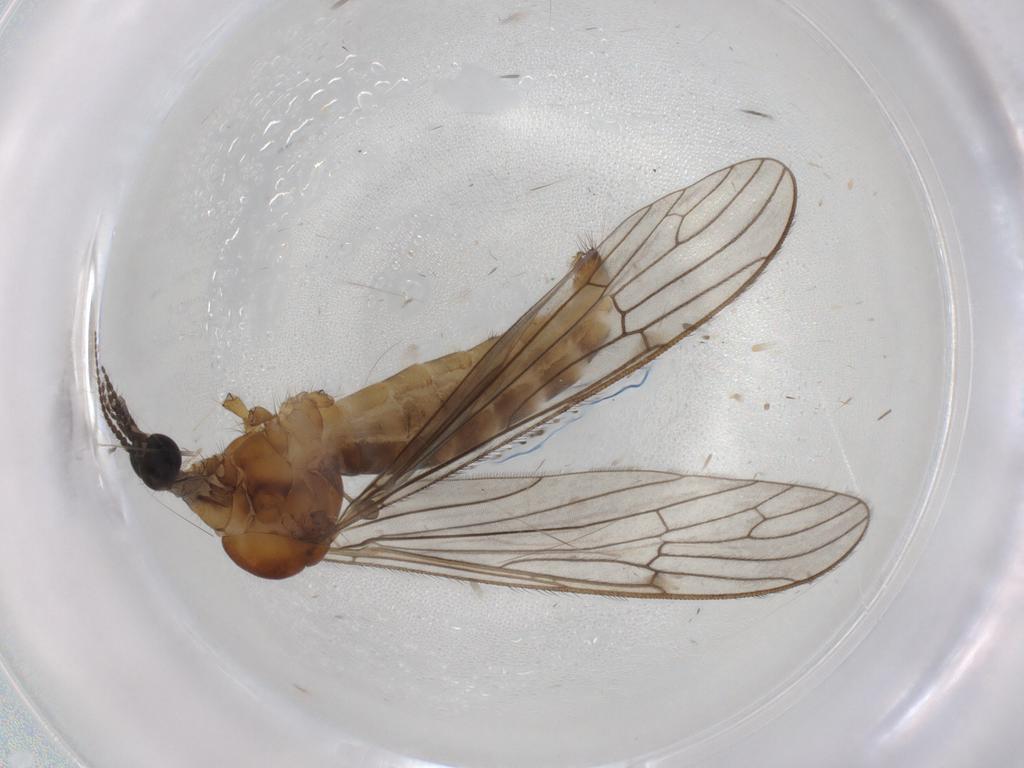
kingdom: Animalia
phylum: Arthropoda
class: Insecta
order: Diptera
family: Limoniidae
